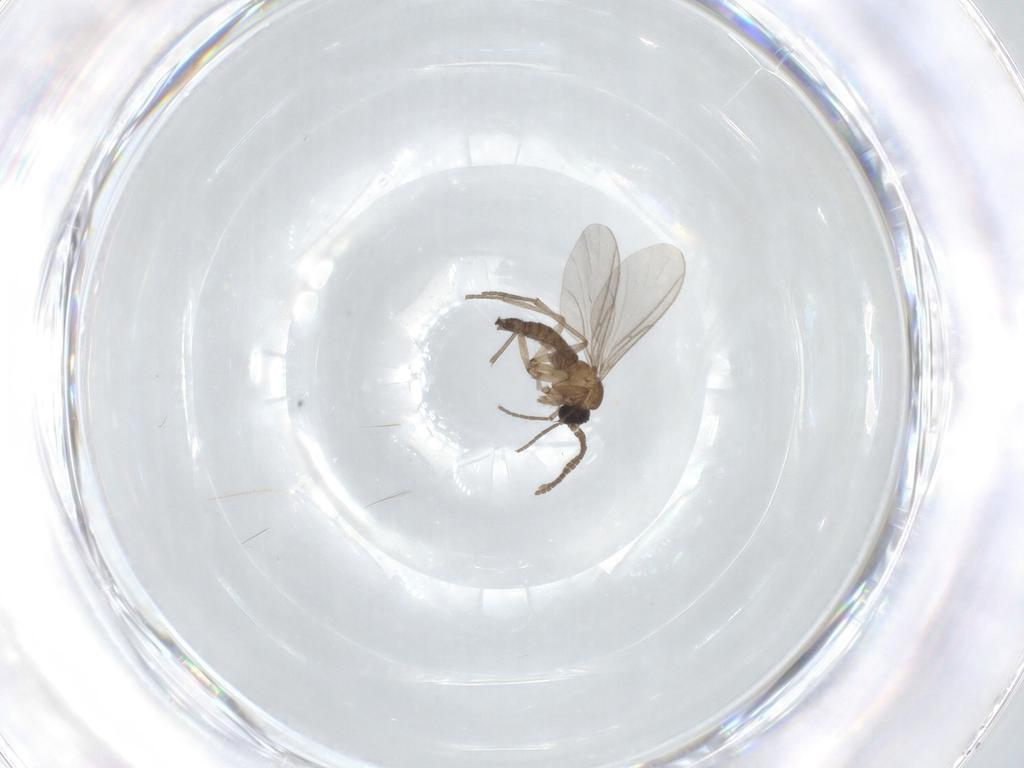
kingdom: Animalia
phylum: Arthropoda
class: Insecta
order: Diptera
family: Sciaridae
